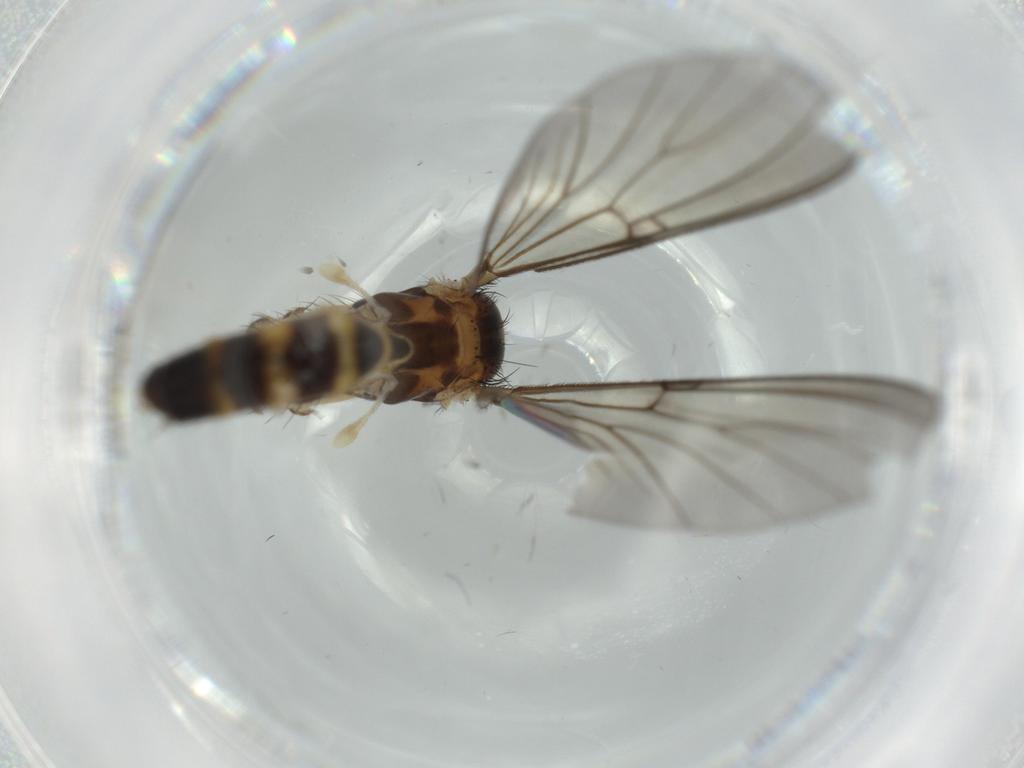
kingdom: Animalia
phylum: Arthropoda
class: Insecta
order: Diptera
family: Cecidomyiidae
